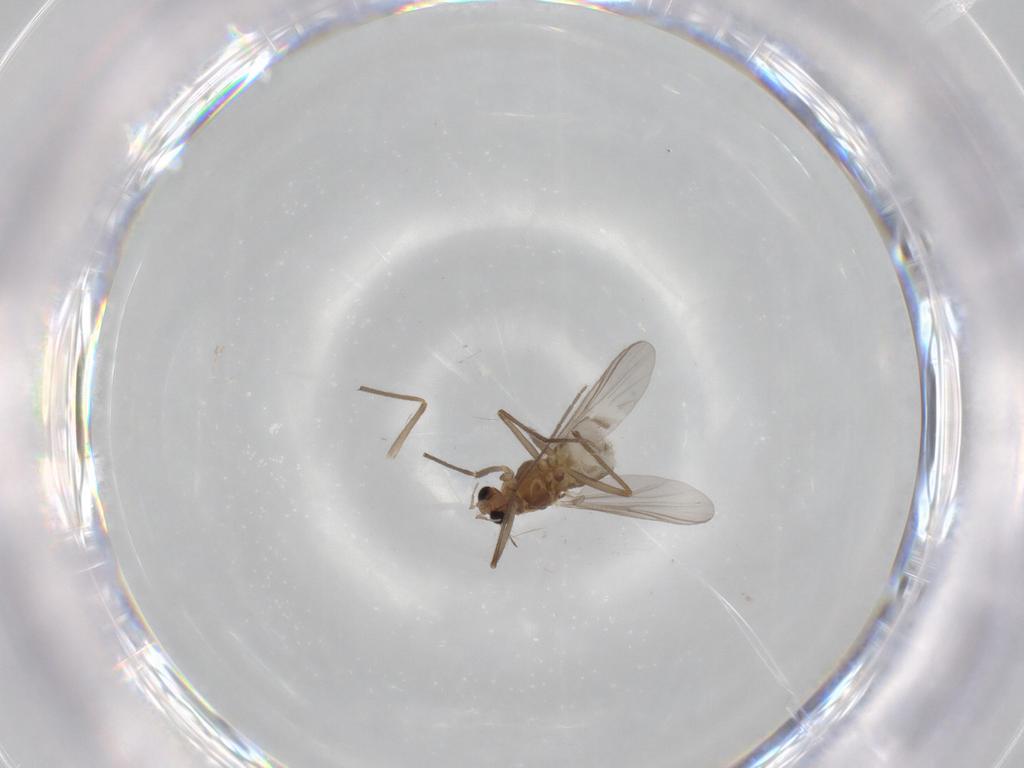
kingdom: Animalia
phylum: Arthropoda
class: Insecta
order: Diptera
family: Chironomidae
